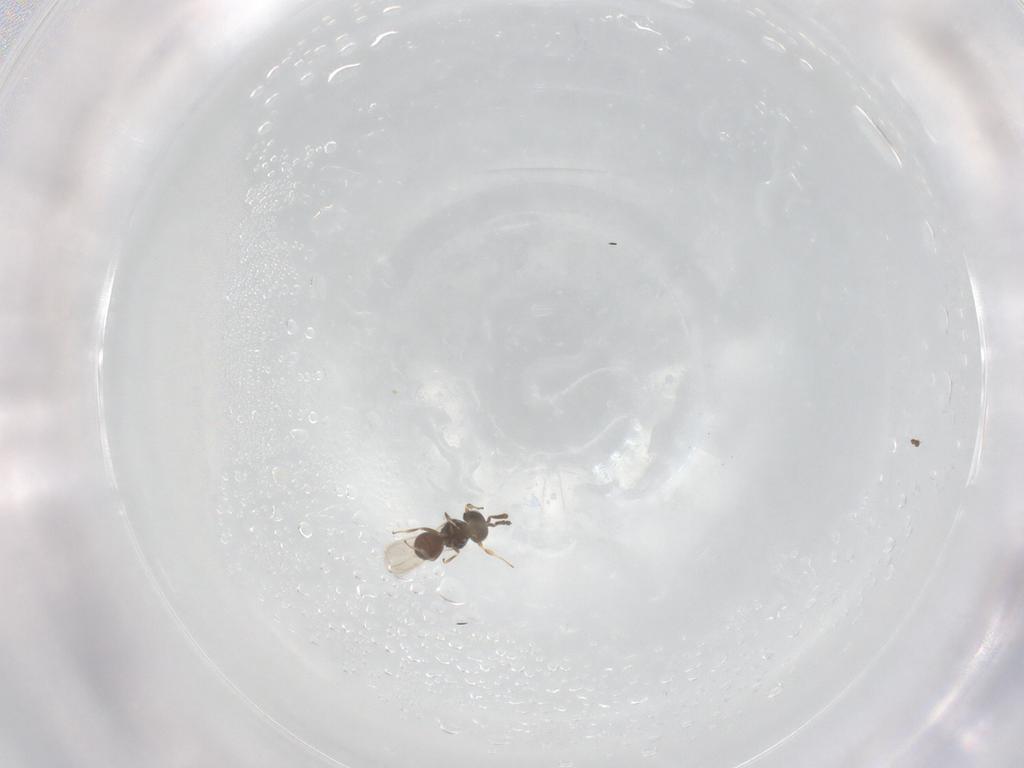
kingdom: Animalia
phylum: Arthropoda
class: Insecta
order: Hymenoptera
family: Scelionidae
